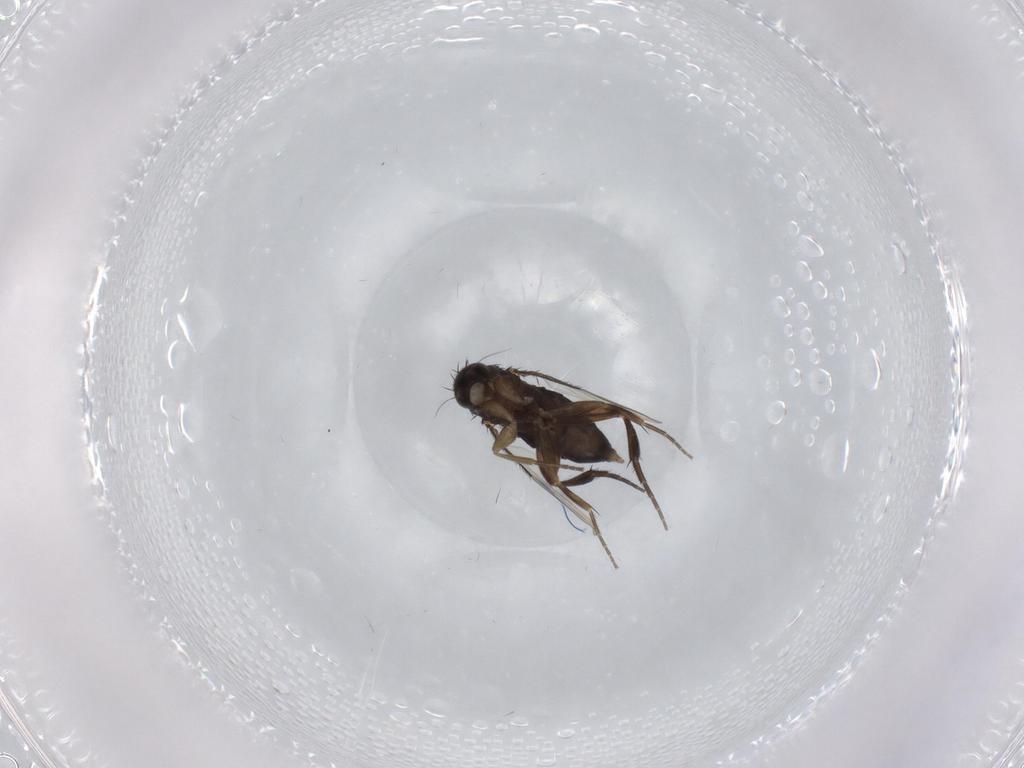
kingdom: Animalia
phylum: Arthropoda
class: Insecta
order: Diptera
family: Phoridae
